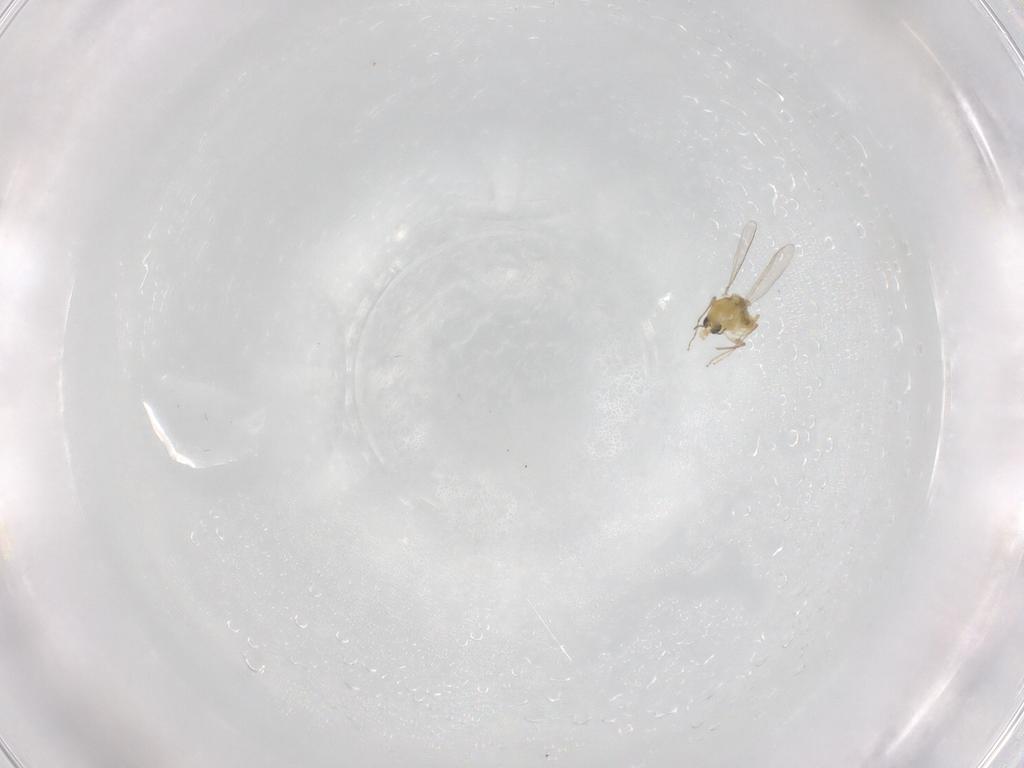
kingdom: Animalia
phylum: Arthropoda
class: Insecta
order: Diptera
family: Chironomidae
